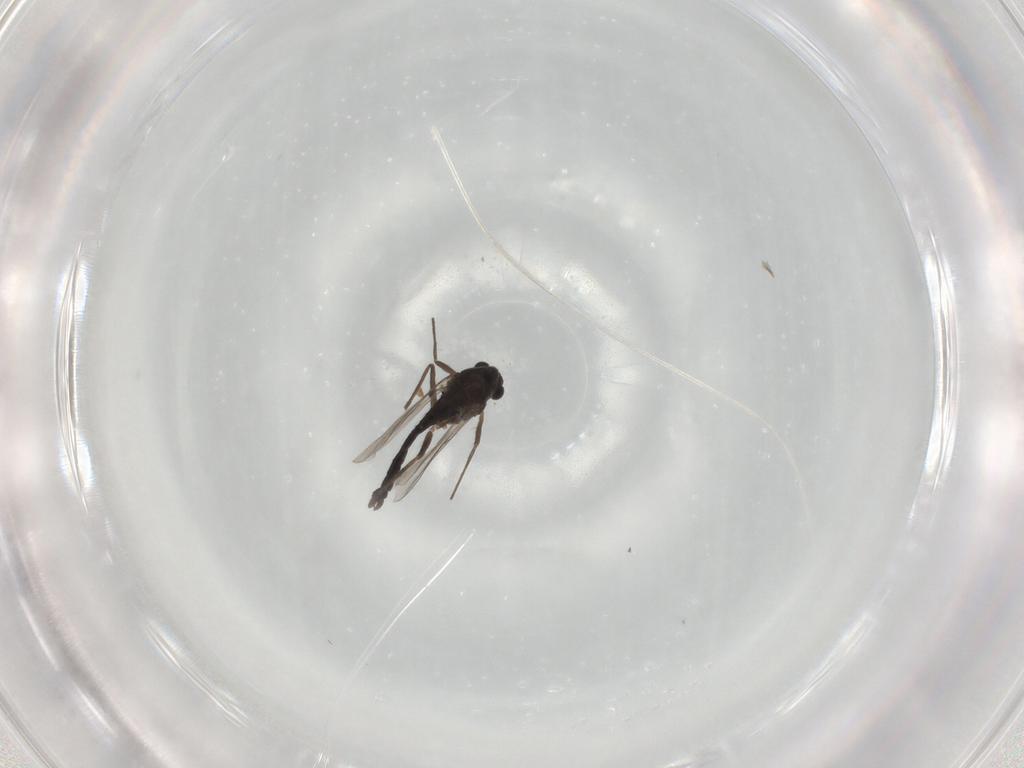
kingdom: Animalia
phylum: Arthropoda
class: Insecta
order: Diptera
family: Chironomidae
